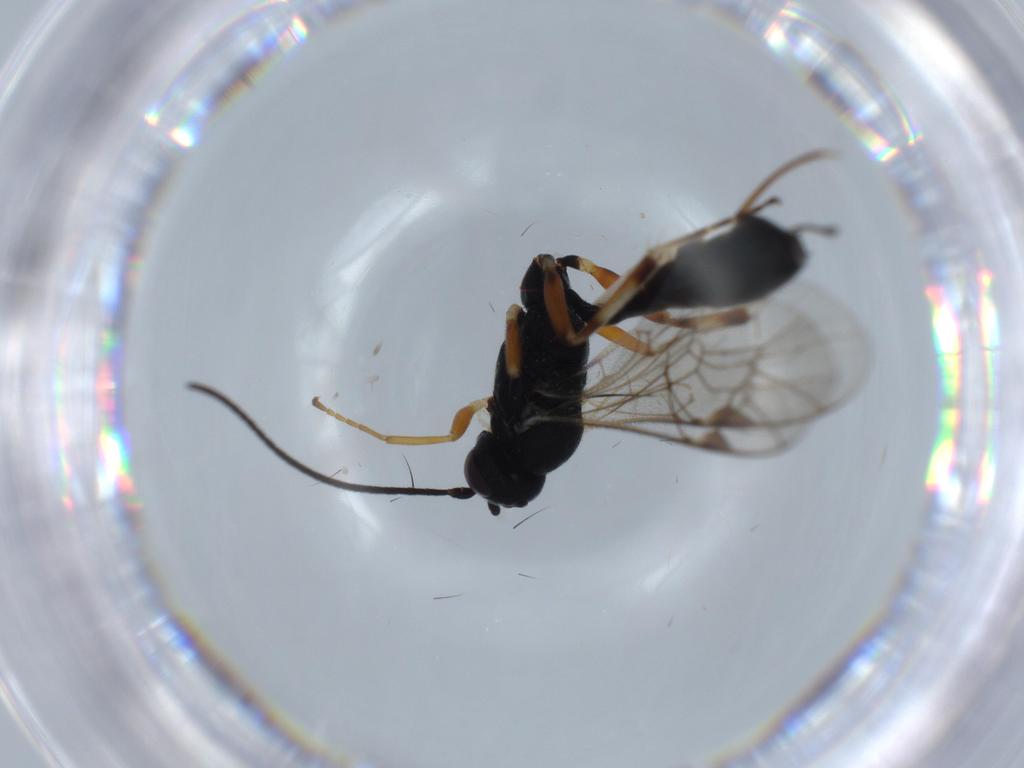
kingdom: Animalia
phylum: Arthropoda
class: Insecta
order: Hymenoptera
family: Ichneumonidae
